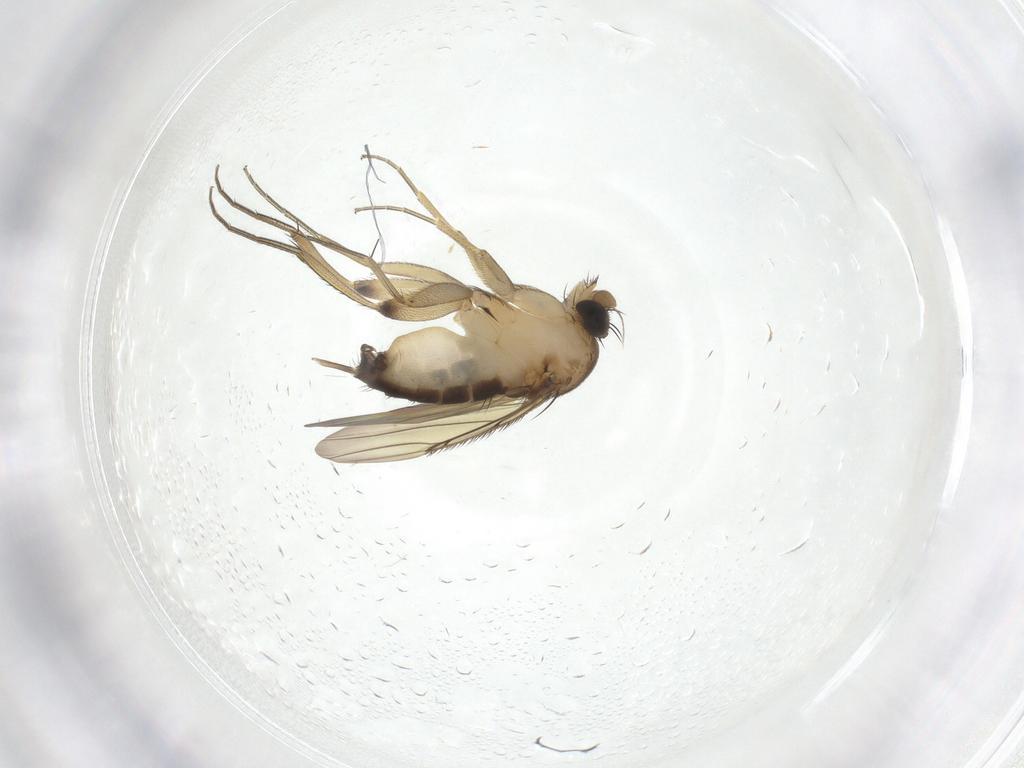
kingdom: Animalia
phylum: Arthropoda
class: Insecta
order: Diptera
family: Phoridae
